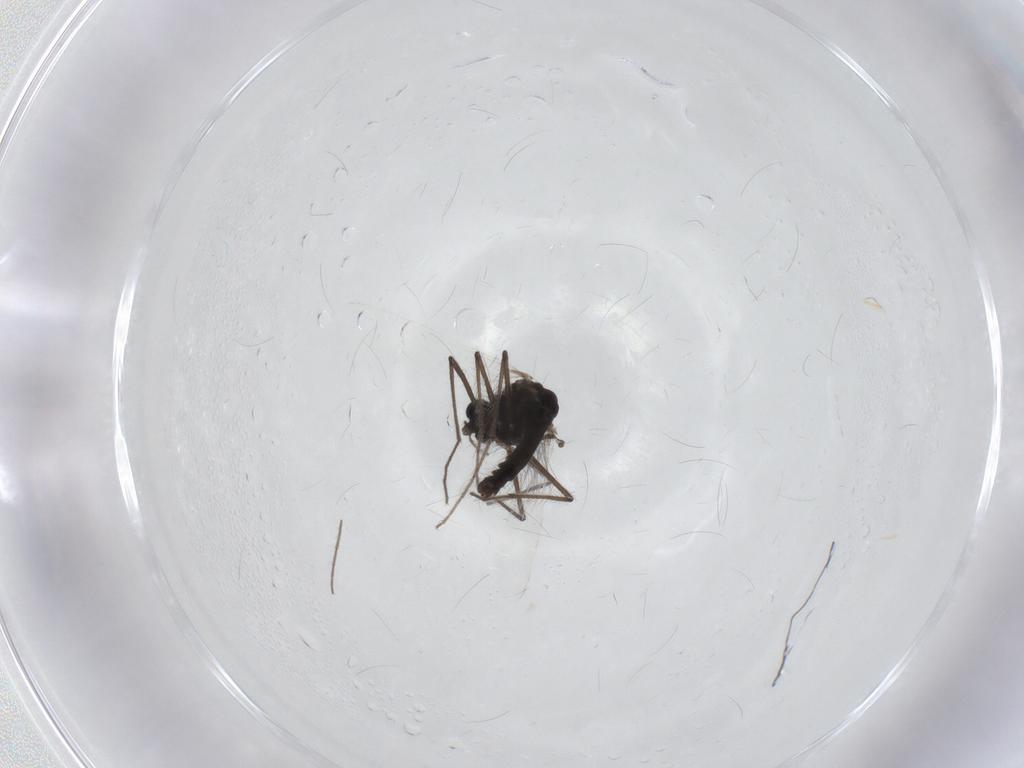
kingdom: Animalia
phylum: Arthropoda
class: Insecta
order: Diptera
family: Chironomidae
